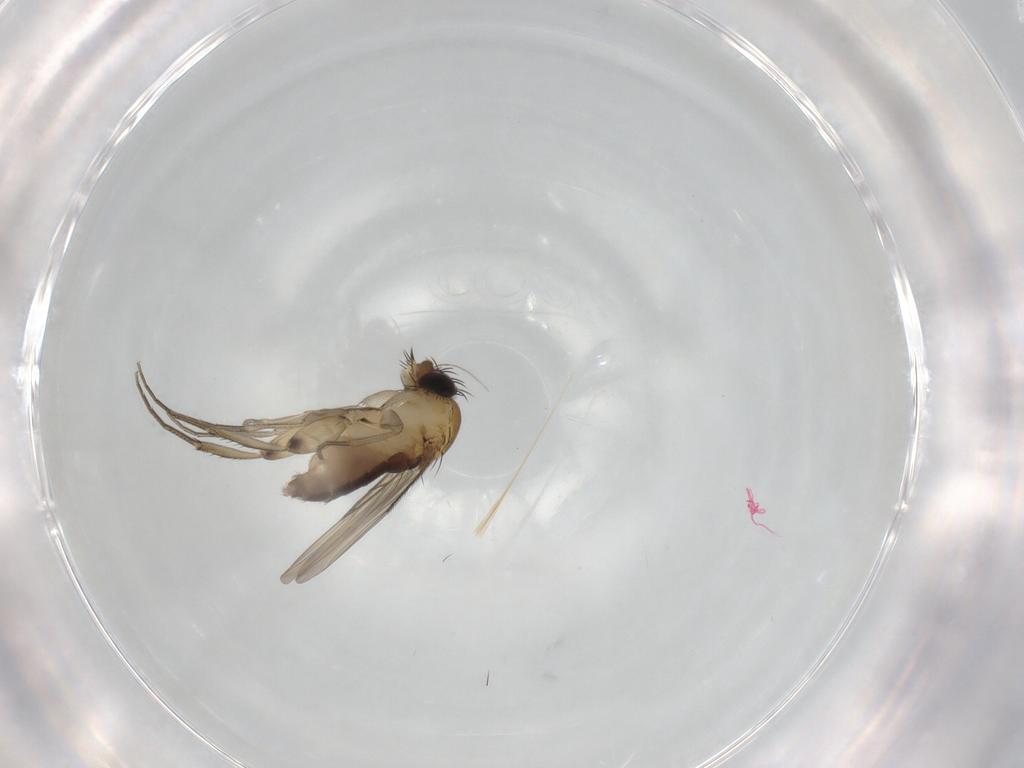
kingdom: Animalia
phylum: Arthropoda
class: Insecta
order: Diptera
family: Phoridae
